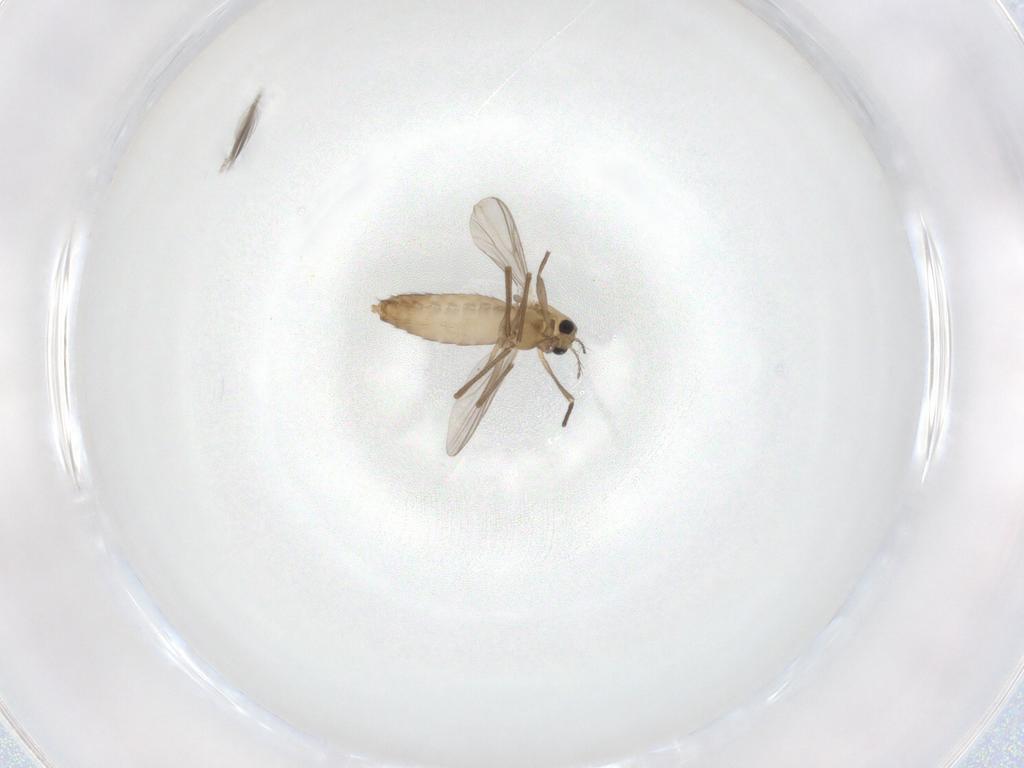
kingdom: Animalia
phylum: Arthropoda
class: Insecta
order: Diptera
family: Chironomidae
